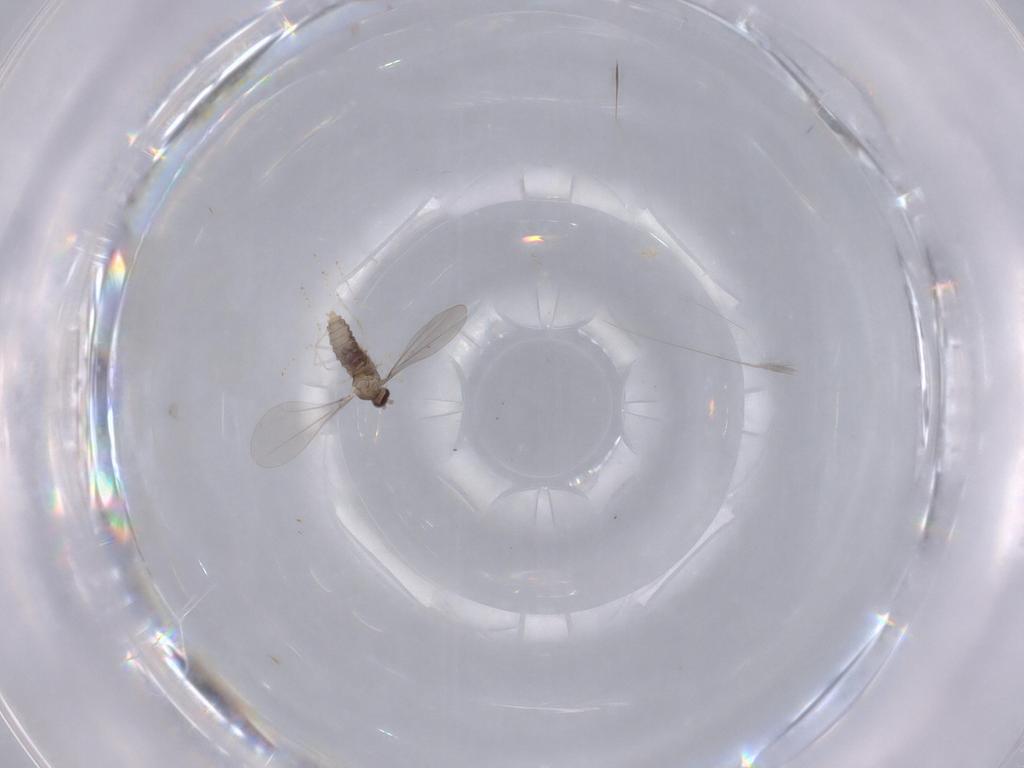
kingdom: Animalia
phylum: Arthropoda
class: Insecta
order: Diptera
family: Cecidomyiidae
